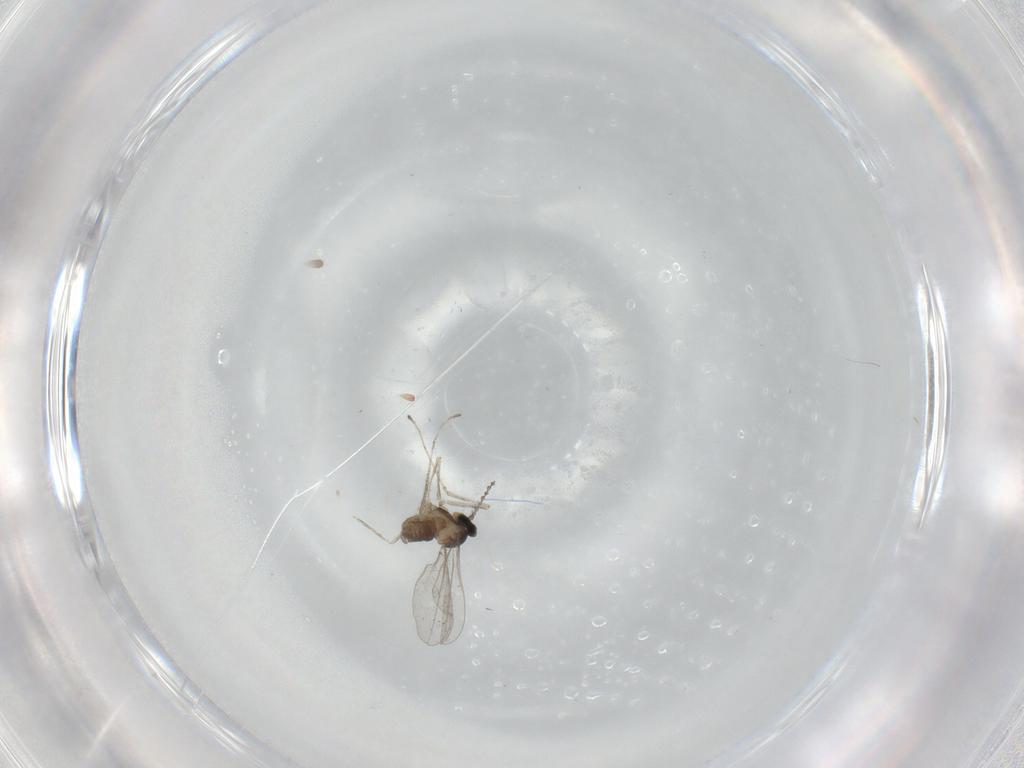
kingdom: Animalia
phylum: Arthropoda
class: Insecta
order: Diptera
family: Cecidomyiidae
